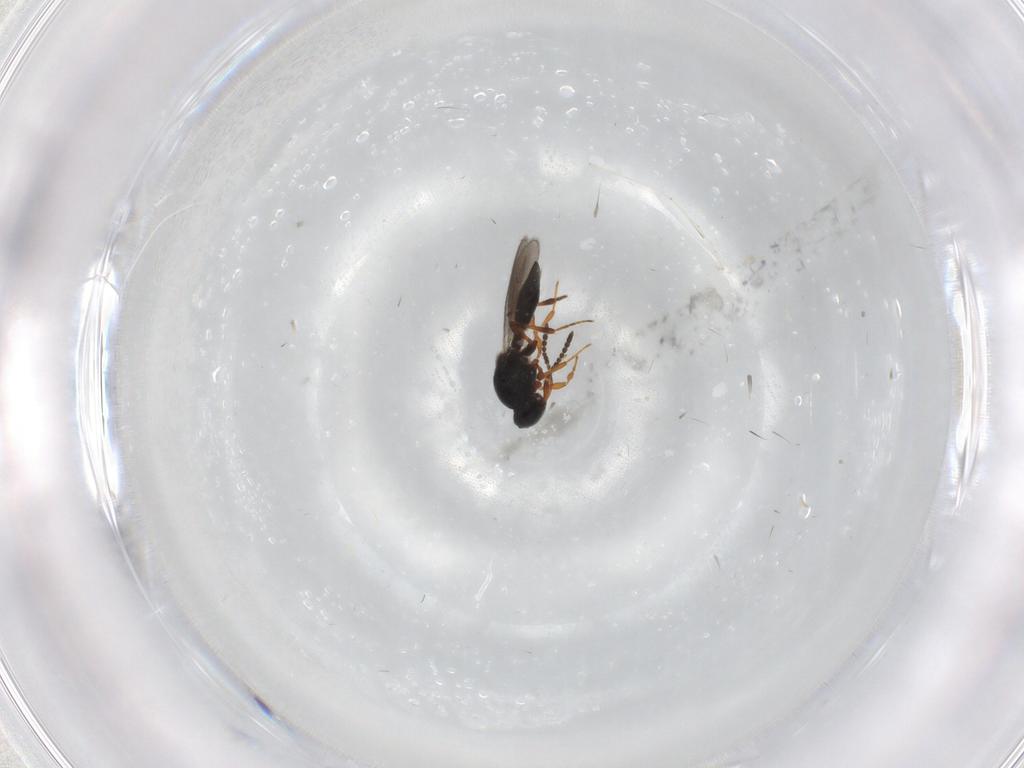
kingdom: Animalia
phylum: Arthropoda
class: Insecta
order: Hymenoptera
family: Platygastridae
